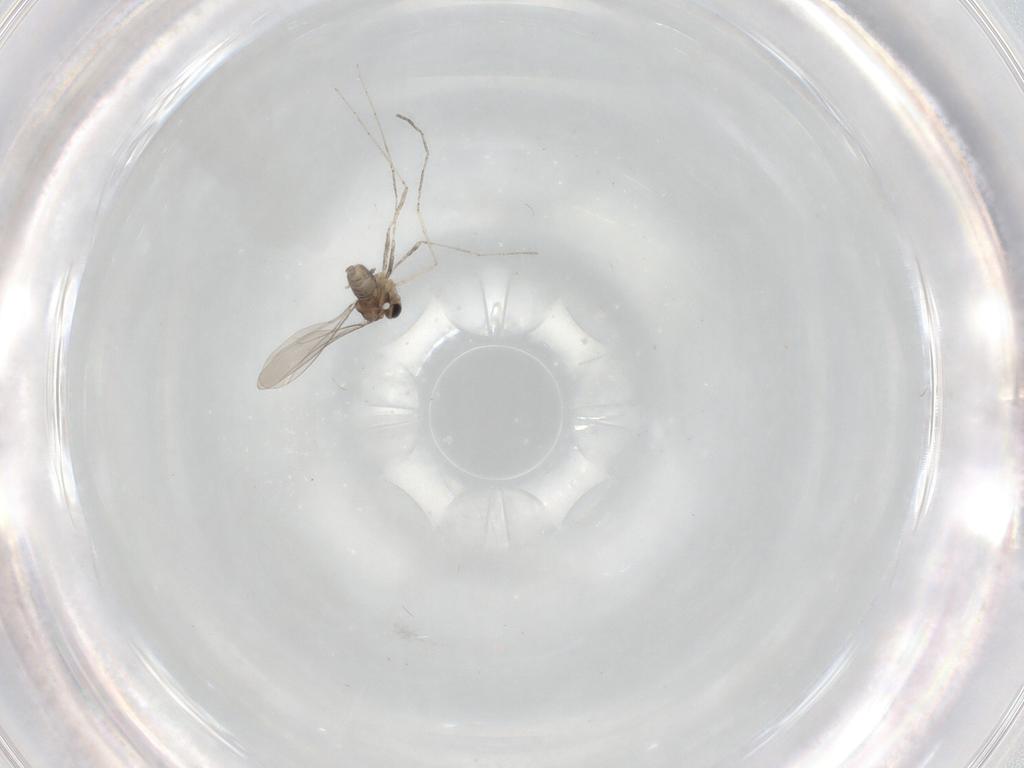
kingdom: Animalia
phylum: Arthropoda
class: Insecta
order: Diptera
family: Cecidomyiidae
